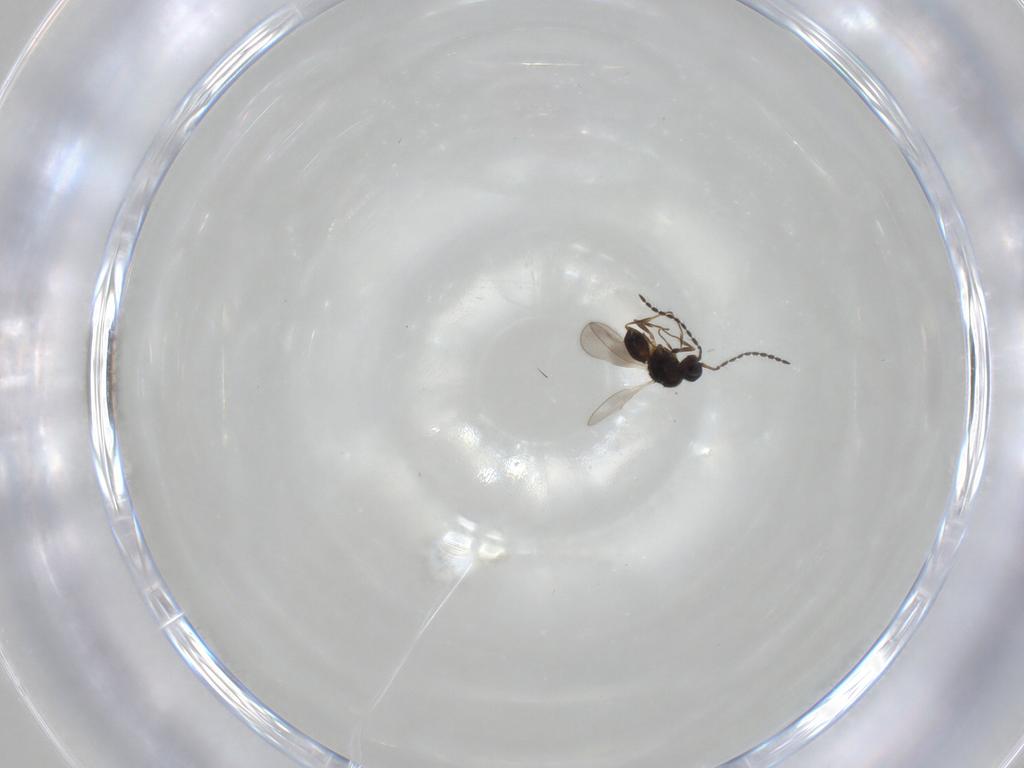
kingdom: Animalia
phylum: Arthropoda
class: Insecta
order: Hymenoptera
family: Ceraphronidae
